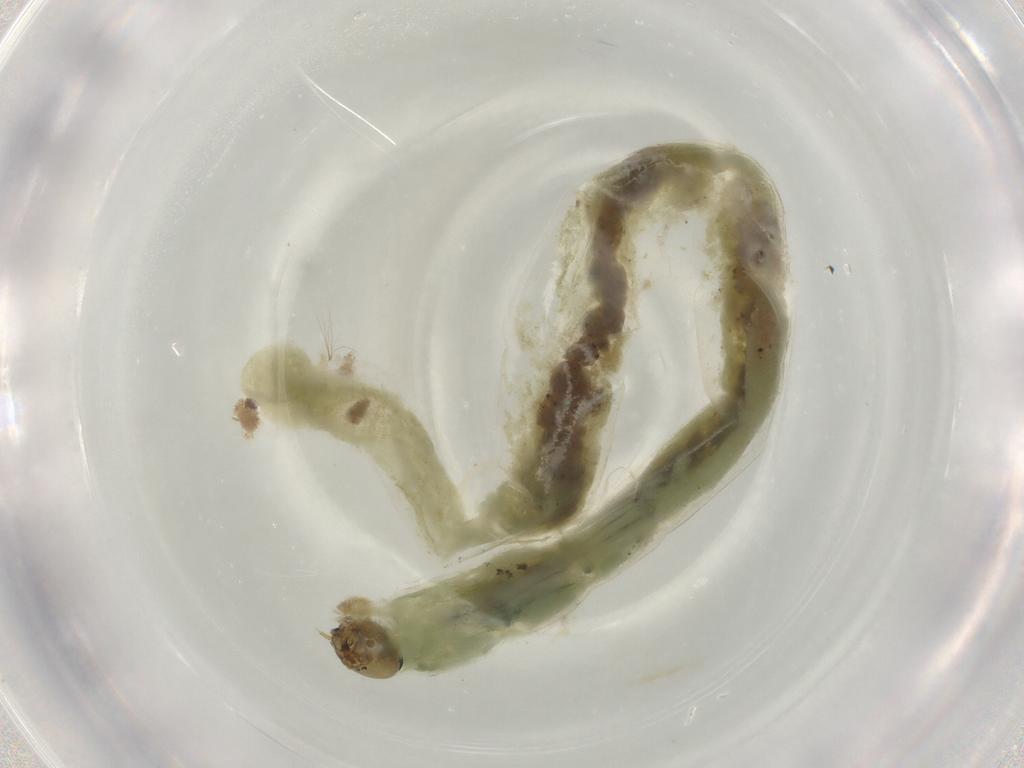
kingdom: Animalia
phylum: Arthropoda
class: Insecta
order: Diptera
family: Chironomidae
